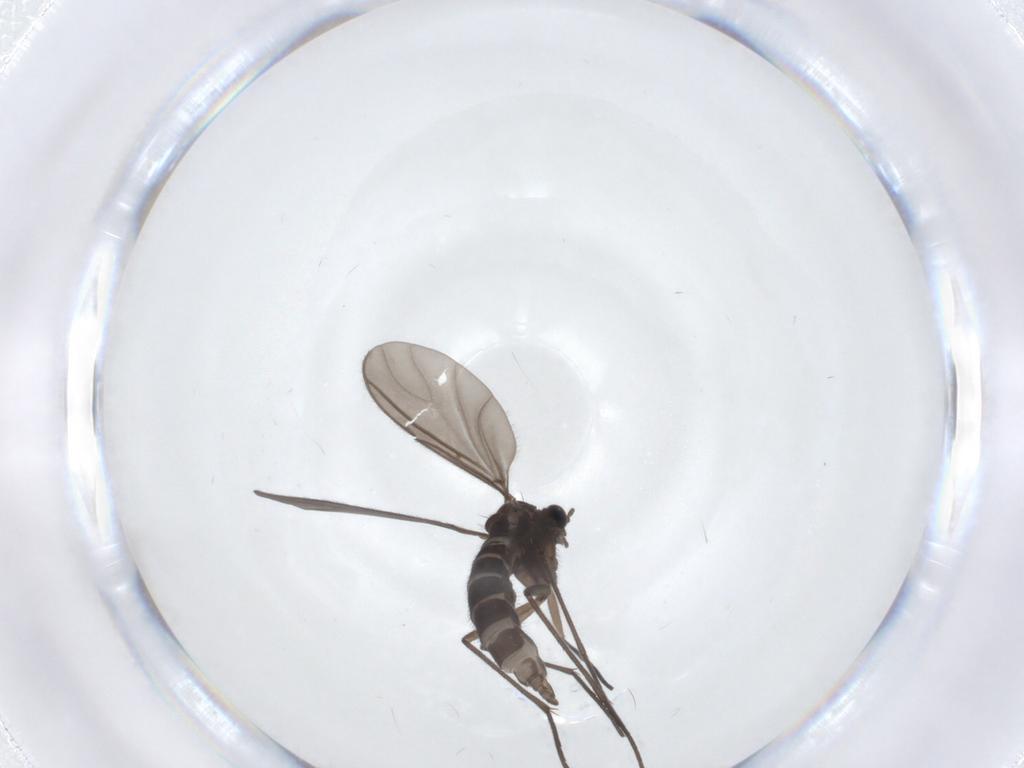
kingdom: Animalia
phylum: Arthropoda
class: Insecta
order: Diptera
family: Sciaridae
